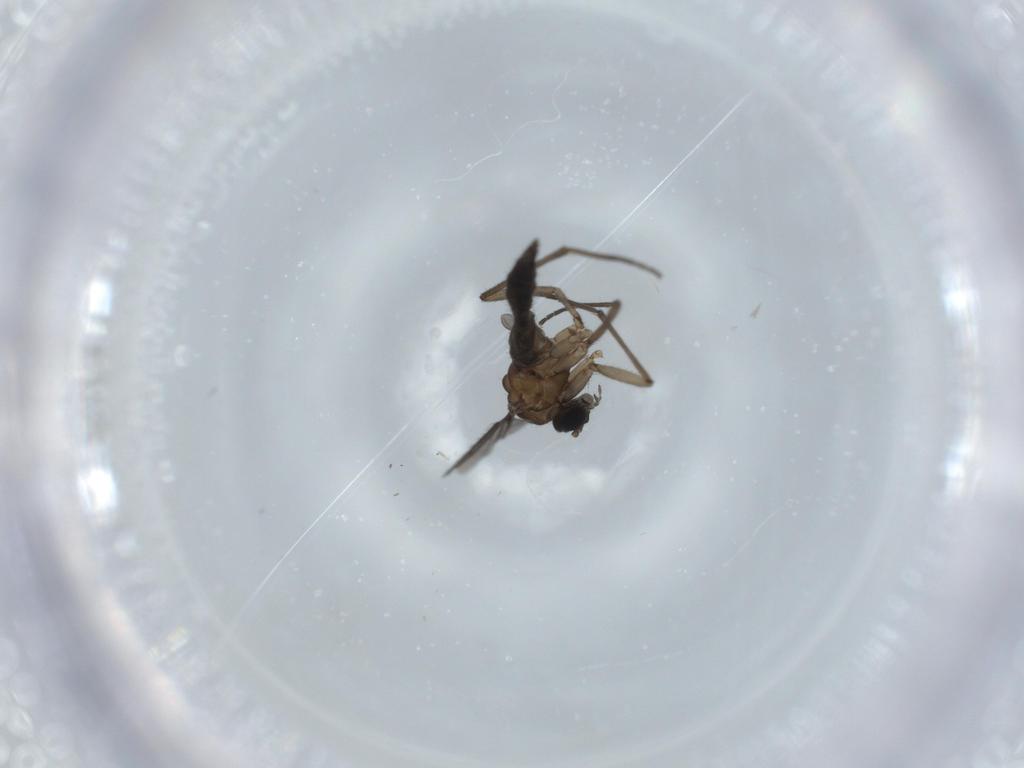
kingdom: Animalia
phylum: Arthropoda
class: Insecta
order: Diptera
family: Sciaridae
